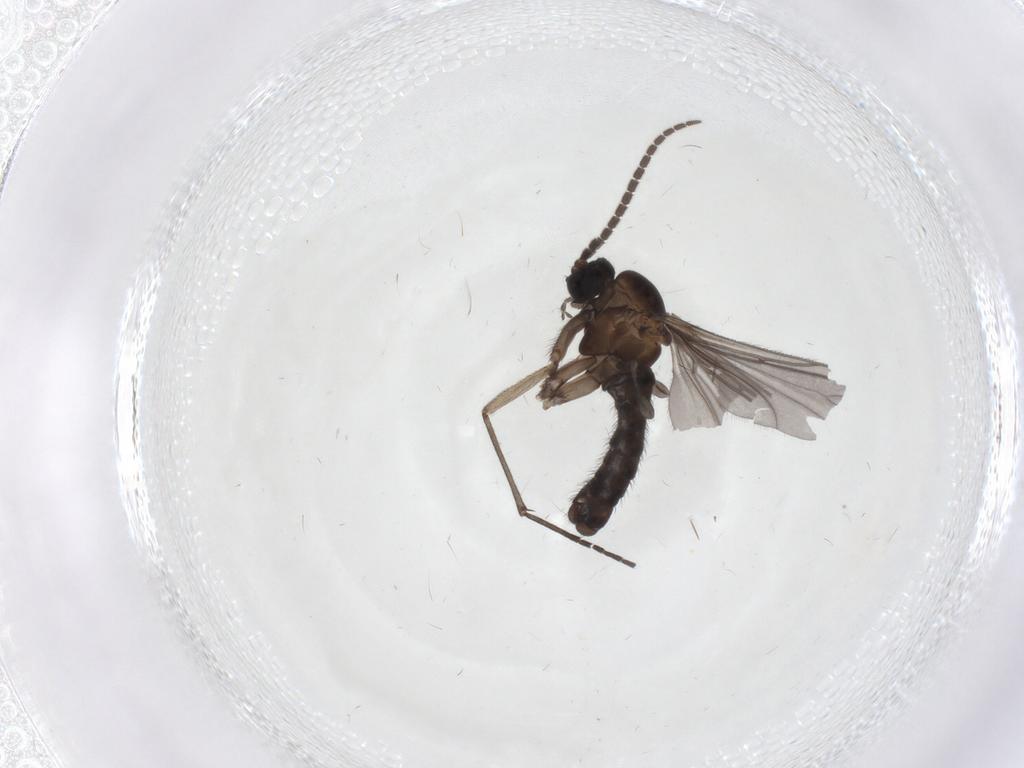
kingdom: Animalia
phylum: Arthropoda
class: Insecta
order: Diptera
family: Sciaridae
